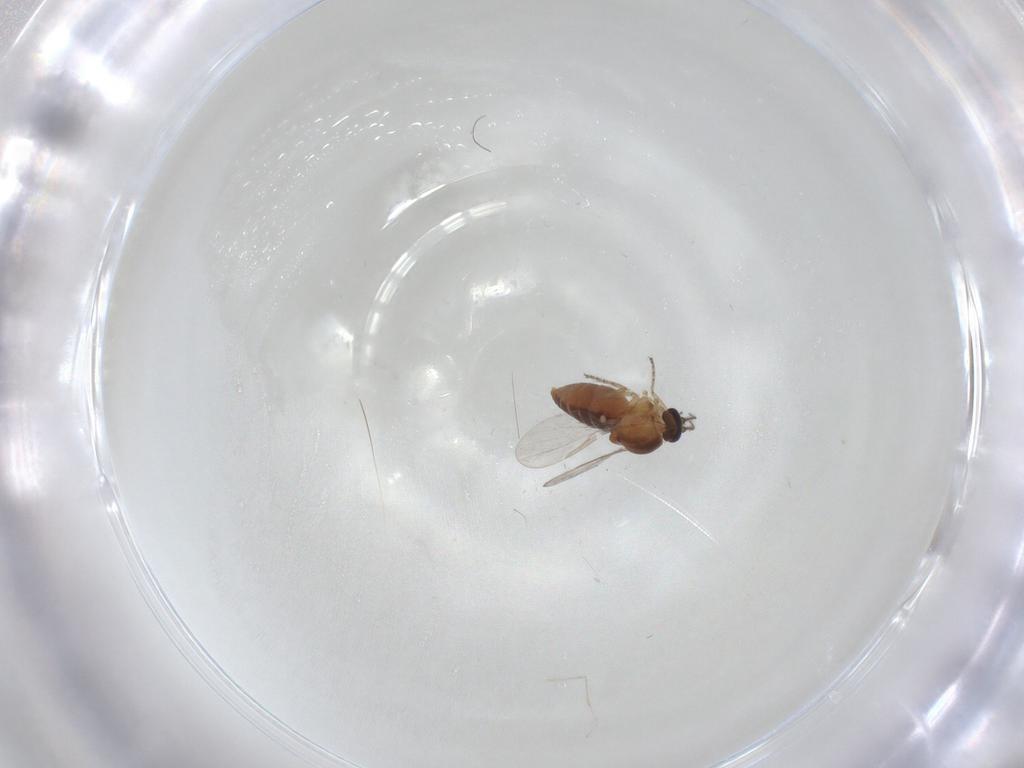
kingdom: Animalia
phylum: Arthropoda
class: Insecta
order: Diptera
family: Ceratopogonidae
